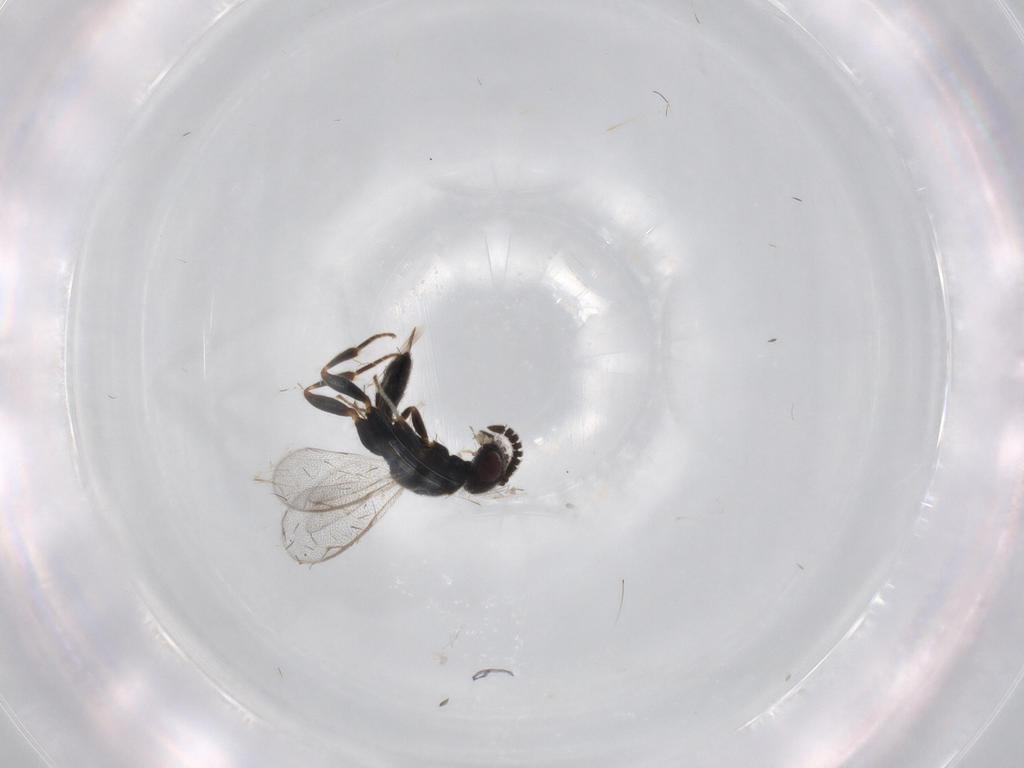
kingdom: Animalia
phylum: Arthropoda
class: Insecta
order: Hymenoptera
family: Cleonyminae
